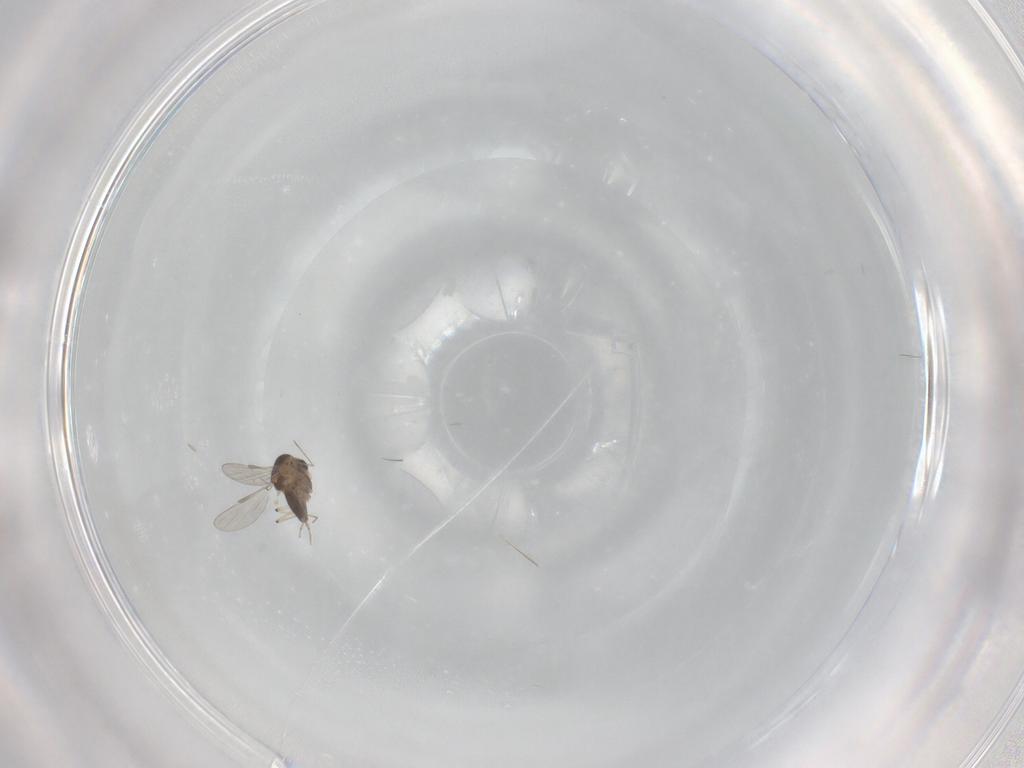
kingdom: Animalia
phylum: Arthropoda
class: Insecta
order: Diptera
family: Chironomidae
